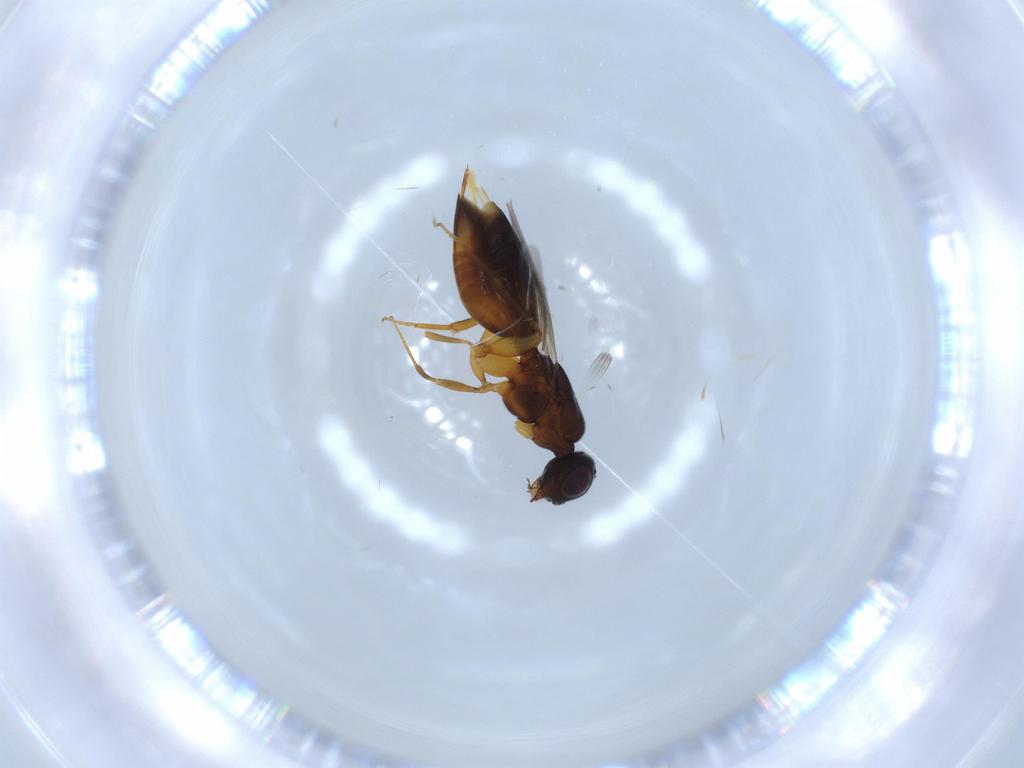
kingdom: Animalia
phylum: Arthropoda
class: Insecta
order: Hymenoptera
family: Megaspilidae
